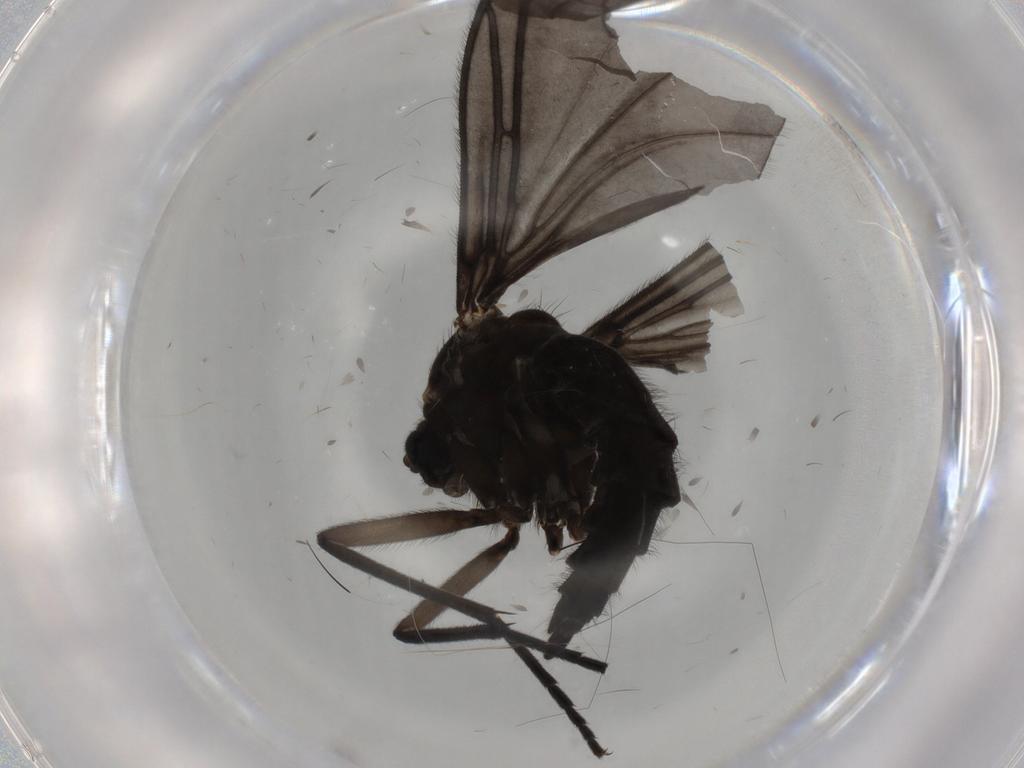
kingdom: Animalia
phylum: Arthropoda
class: Insecta
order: Diptera
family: Sciaridae
